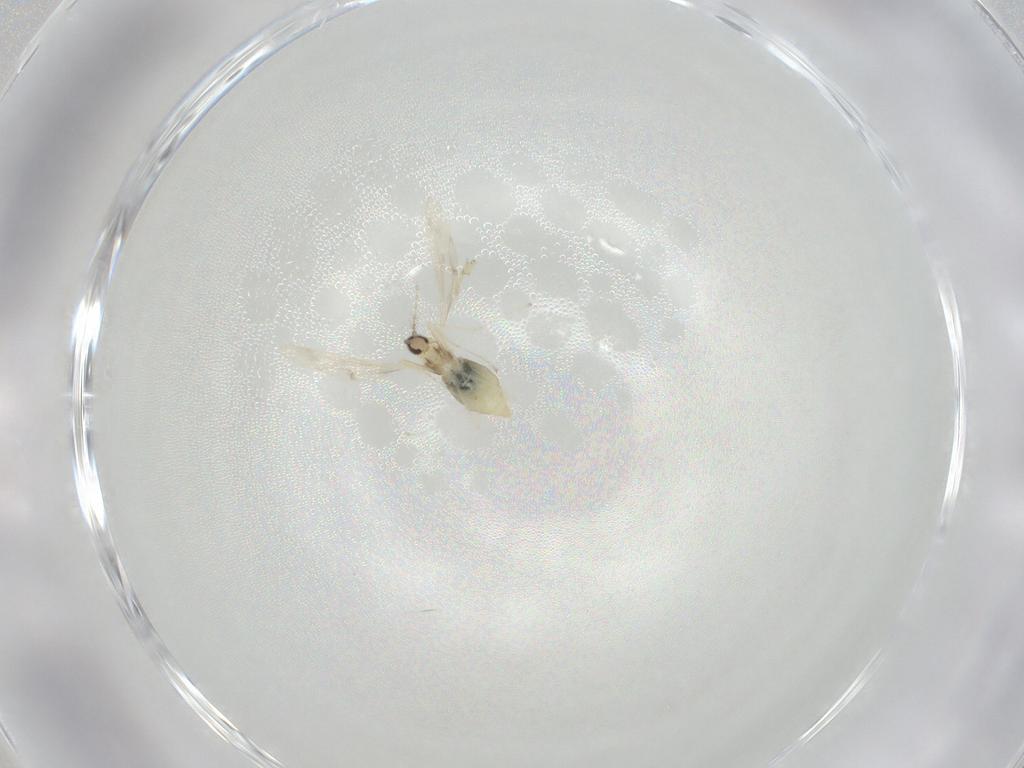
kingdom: Animalia
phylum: Arthropoda
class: Insecta
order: Diptera
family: Cecidomyiidae
